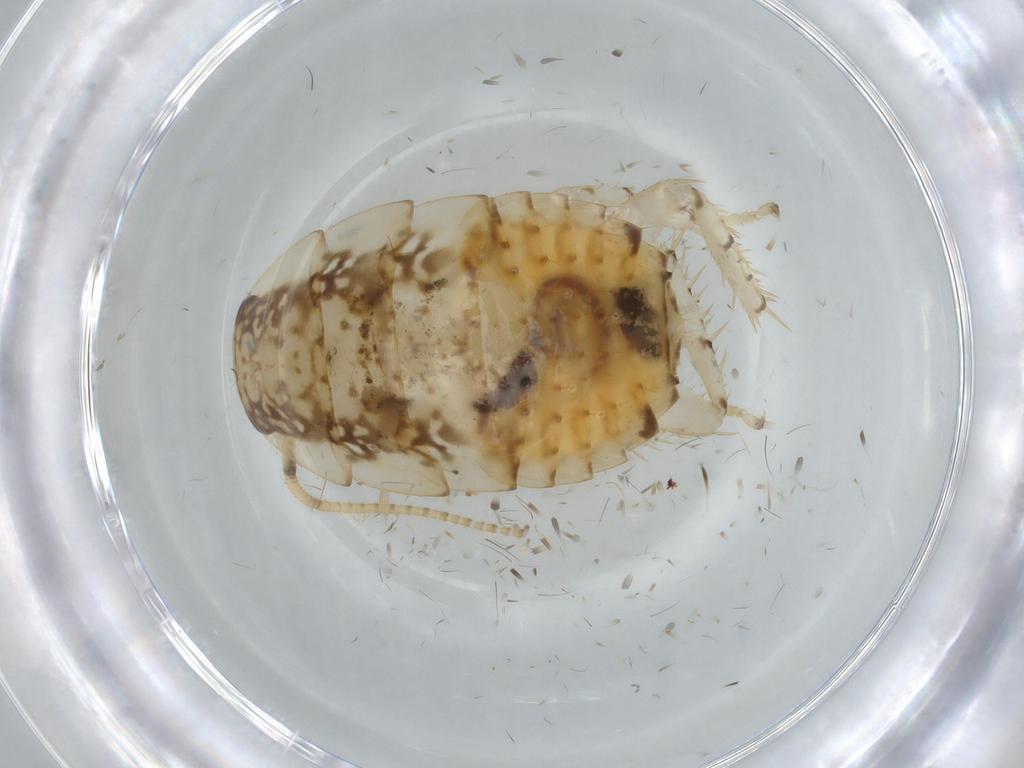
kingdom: Animalia
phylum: Arthropoda
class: Insecta
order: Blattodea
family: Ectobiidae
